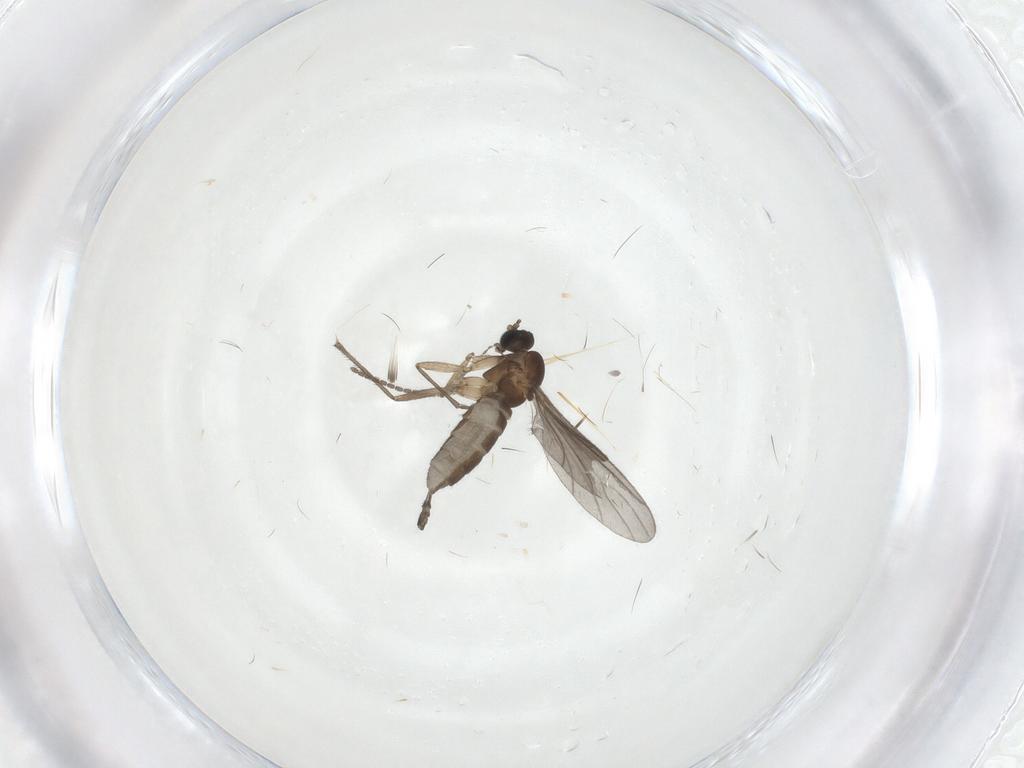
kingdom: Animalia
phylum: Arthropoda
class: Insecta
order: Diptera
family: Sciaridae
